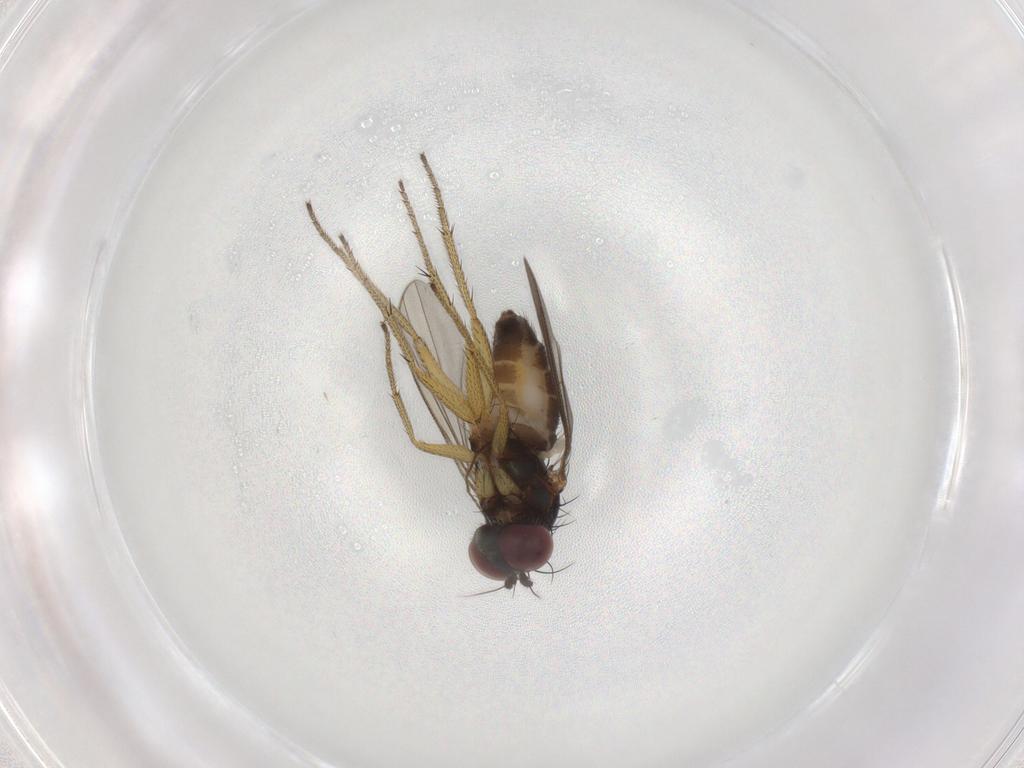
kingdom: Animalia
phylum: Arthropoda
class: Insecta
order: Diptera
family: Chironomidae
